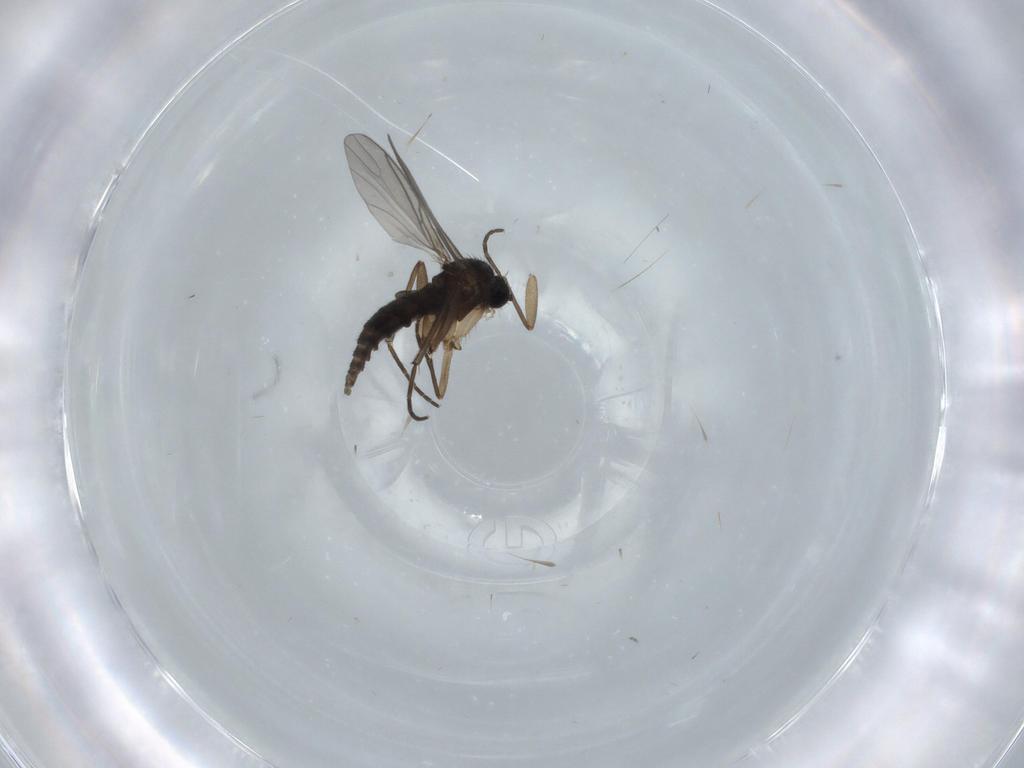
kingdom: Animalia
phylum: Arthropoda
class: Insecta
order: Diptera
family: Sciaridae
